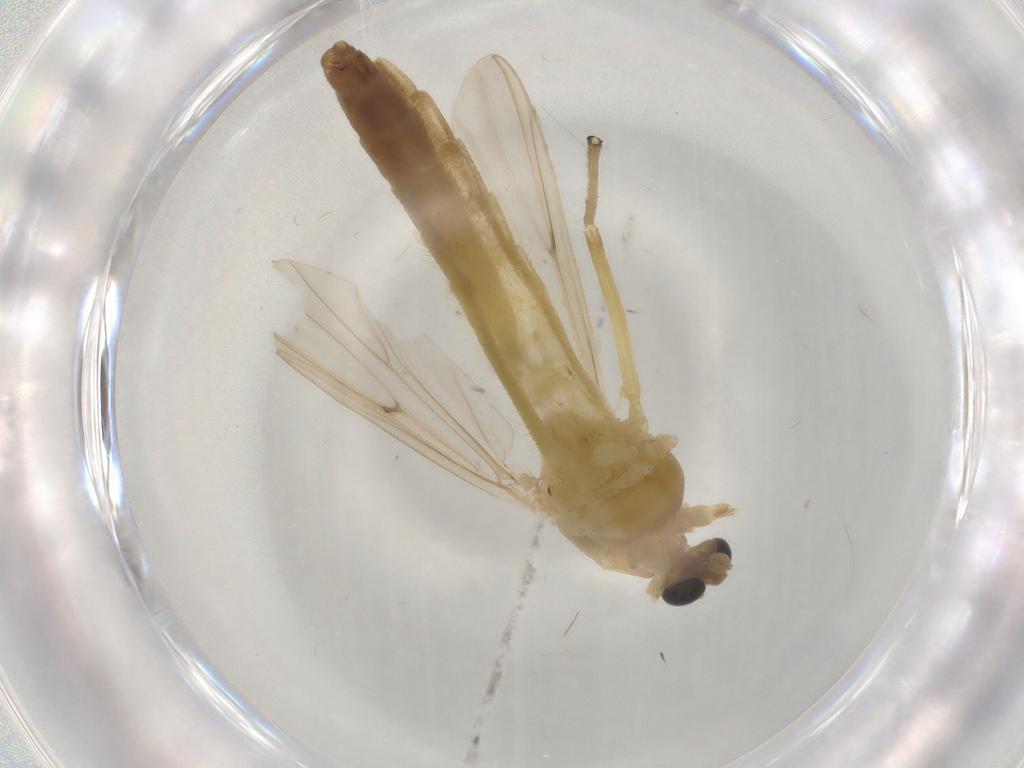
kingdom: Animalia
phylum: Arthropoda
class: Insecta
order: Diptera
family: Chironomidae
